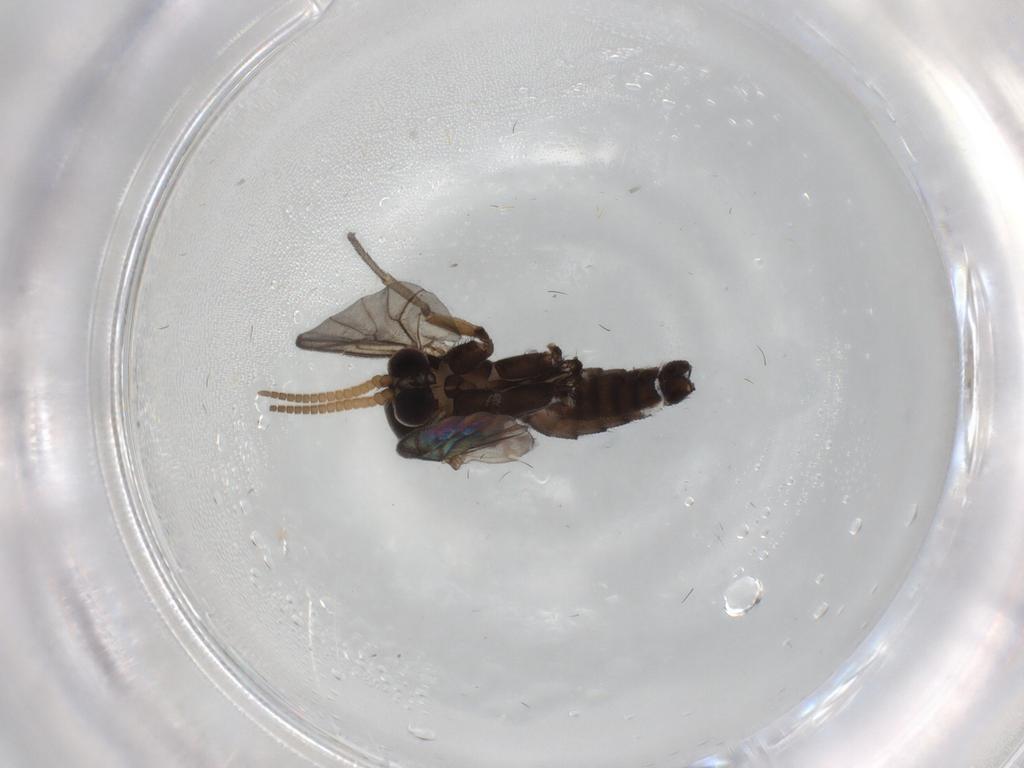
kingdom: Animalia
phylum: Arthropoda
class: Insecta
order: Diptera
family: Mycetophilidae
